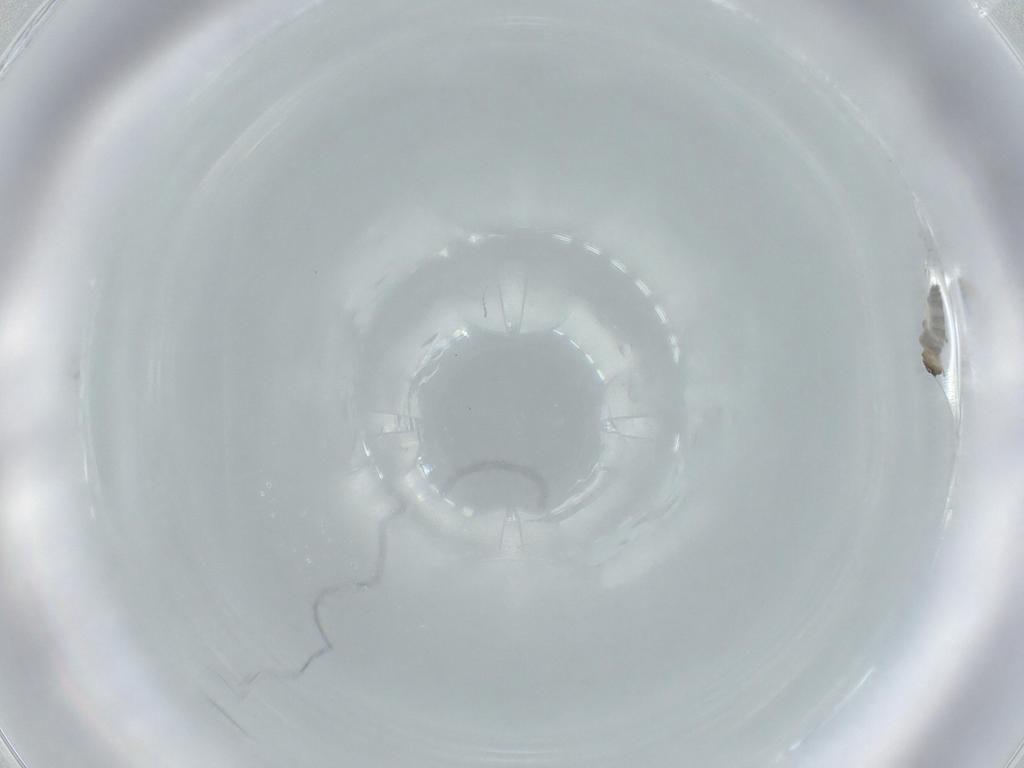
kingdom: Animalia
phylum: Arthropoda
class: Insecta
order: Diptera
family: Cecidomyiidae
